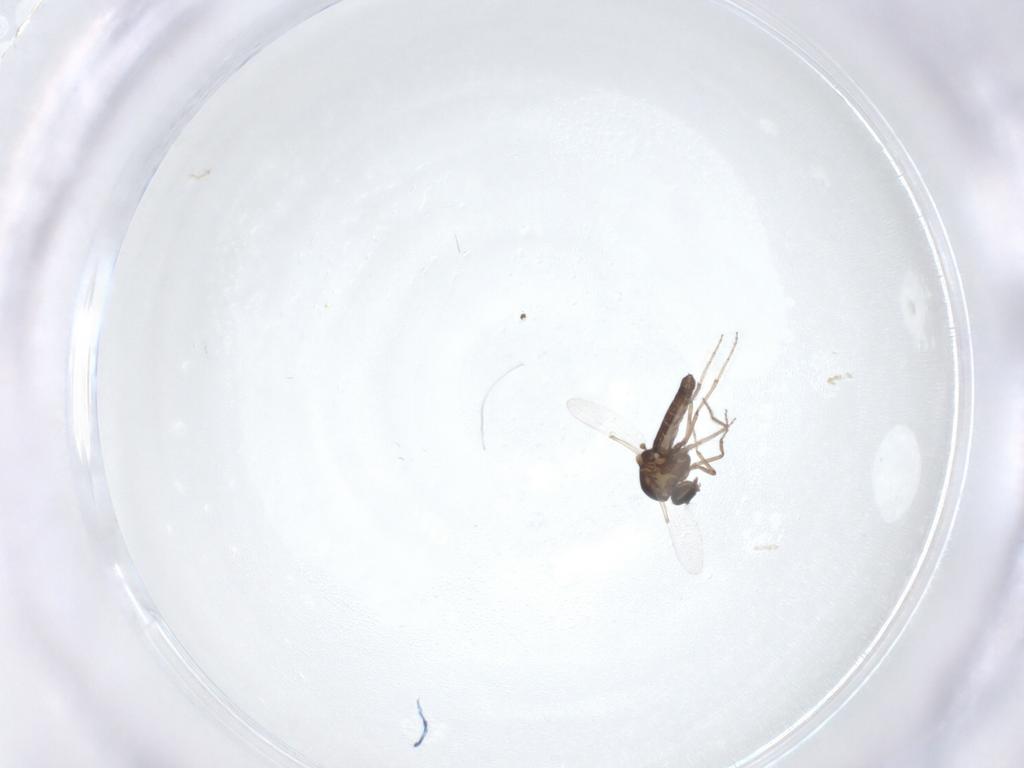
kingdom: Animalia
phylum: Arthropoda
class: Insecta
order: Diptera
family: Ceratopogonidae
